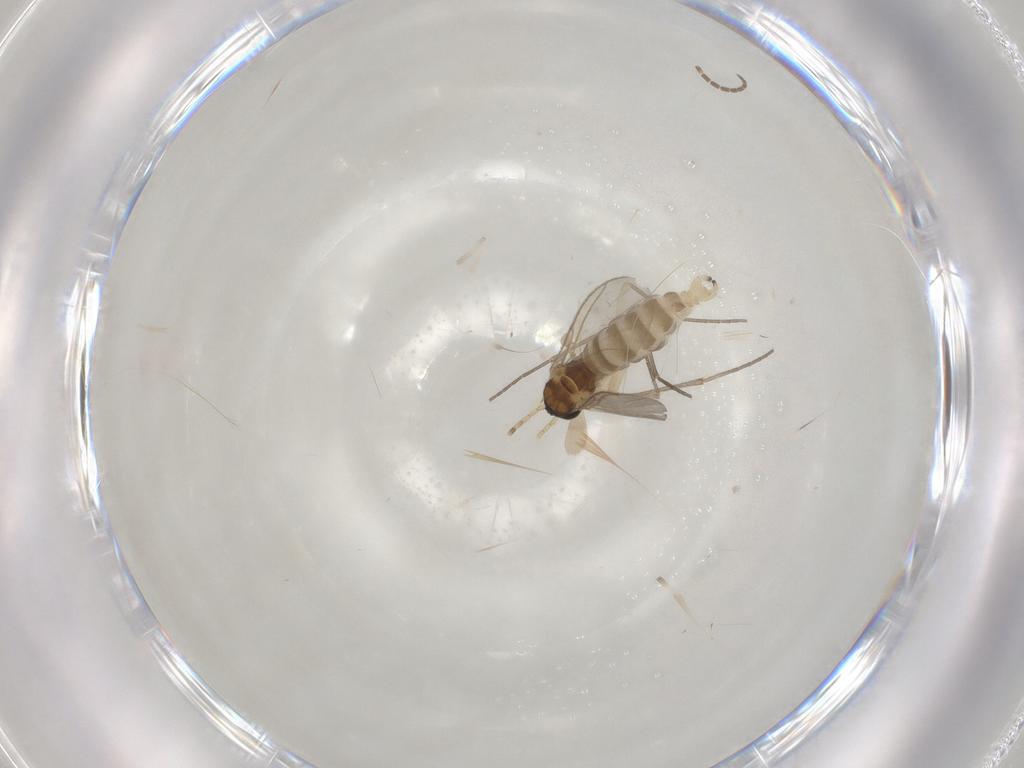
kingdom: Animalia
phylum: Arthropoda
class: Insecta
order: Diptera
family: Sciaridae
